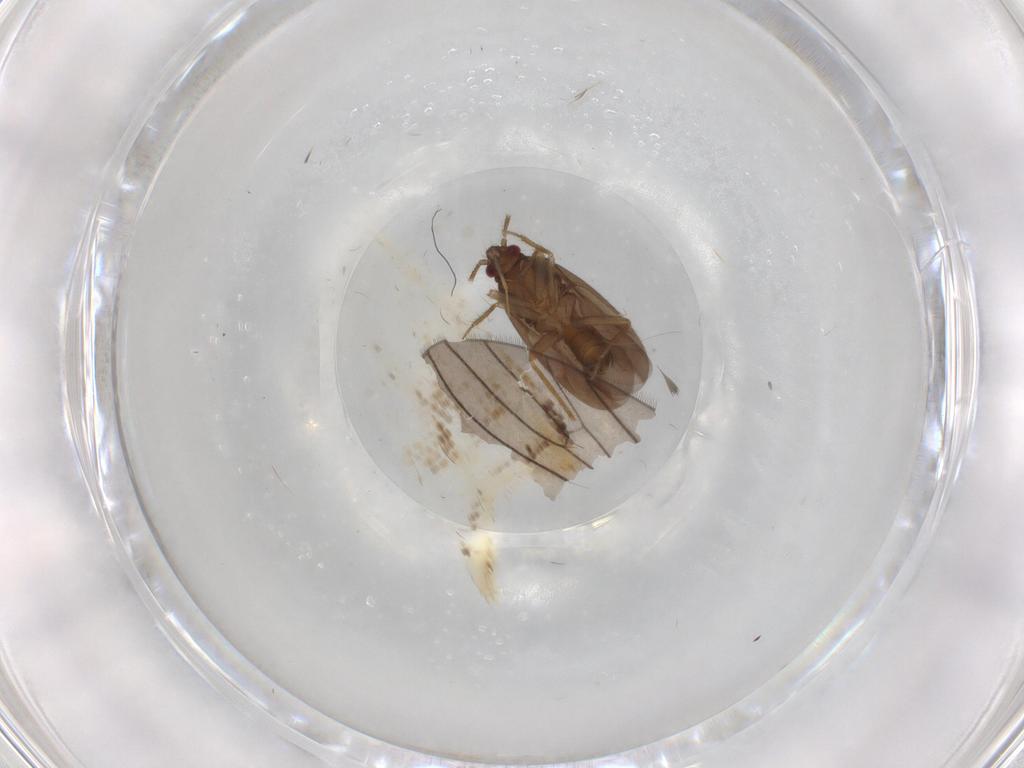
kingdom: Animalia
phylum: Arthropoda
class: Insecta
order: Hemiptera
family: Ceratocombidae
